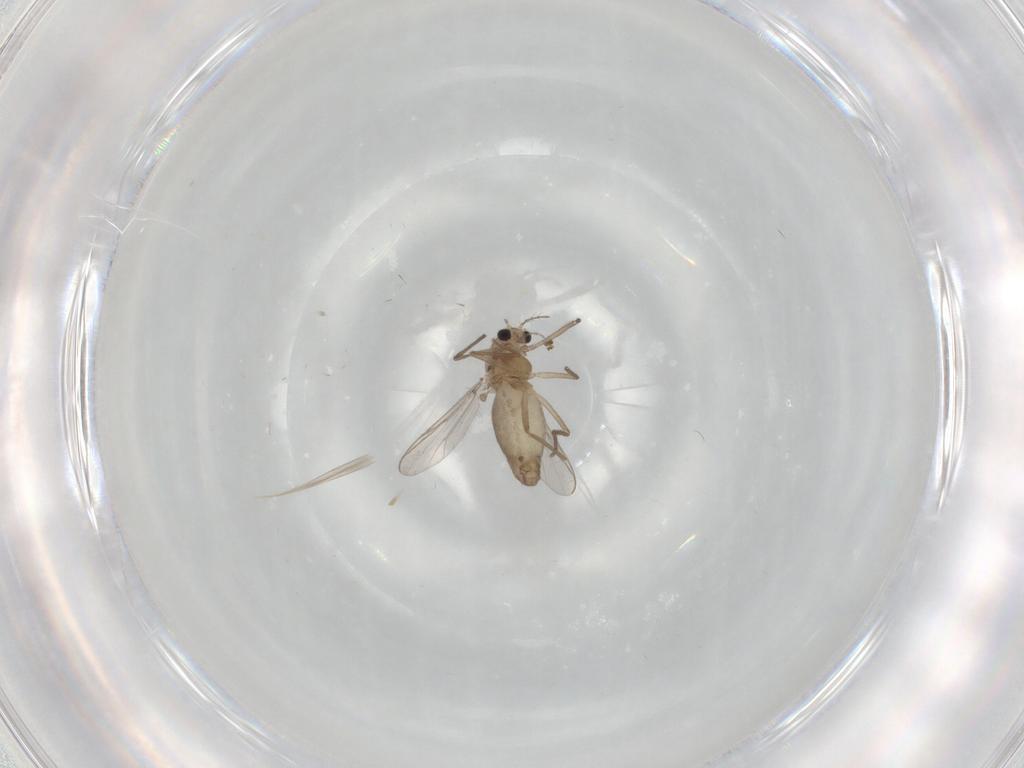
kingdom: Animalia
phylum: Arthropoda
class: Insecta
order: Diptera
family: Chironomidae
